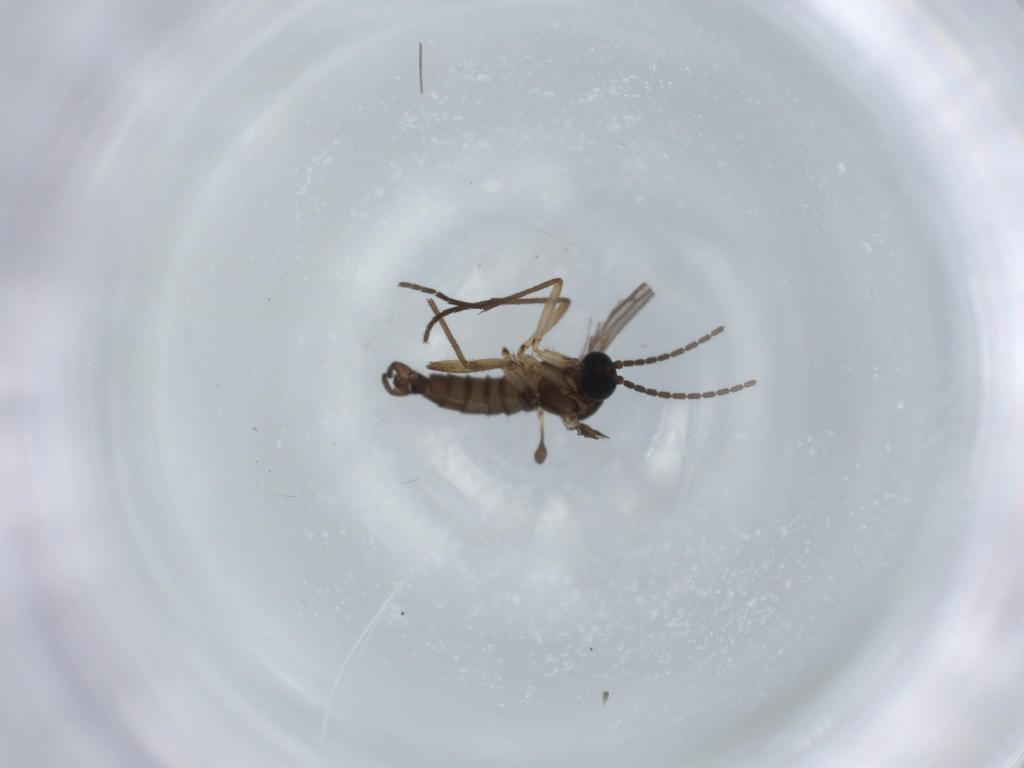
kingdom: Animalia
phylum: Arthropoda
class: Insecta
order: Diptera
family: Sciaridae
